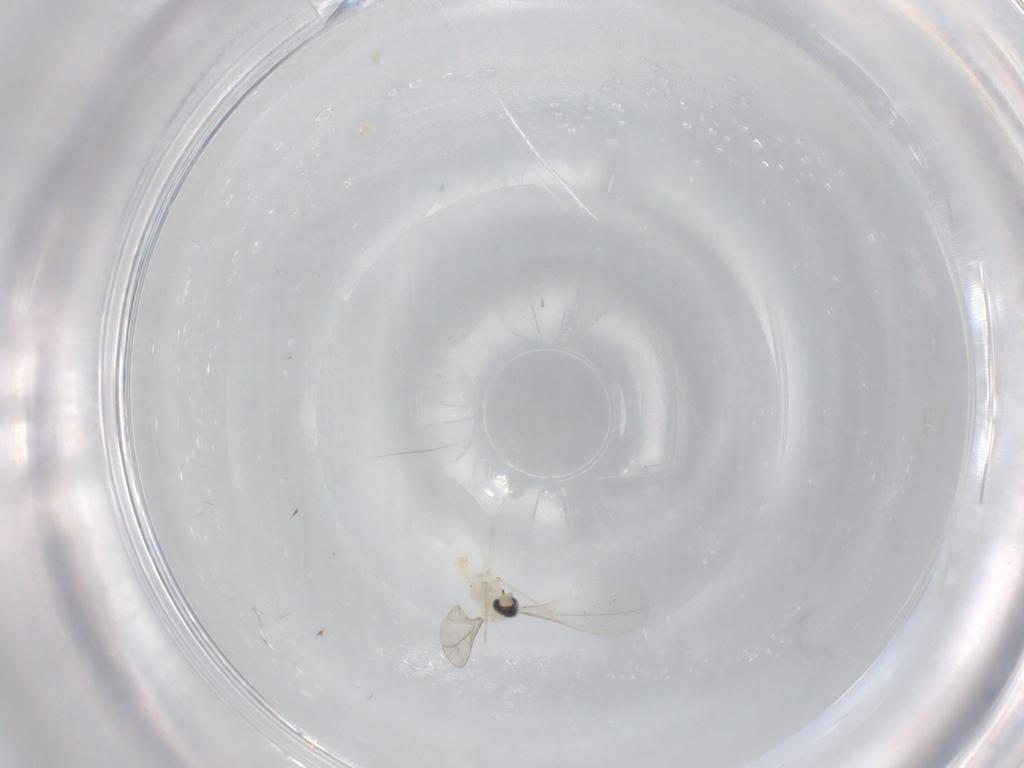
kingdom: Animalia
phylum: Arthropoda
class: Insecta
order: Diptera
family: Cecidomyiidae
